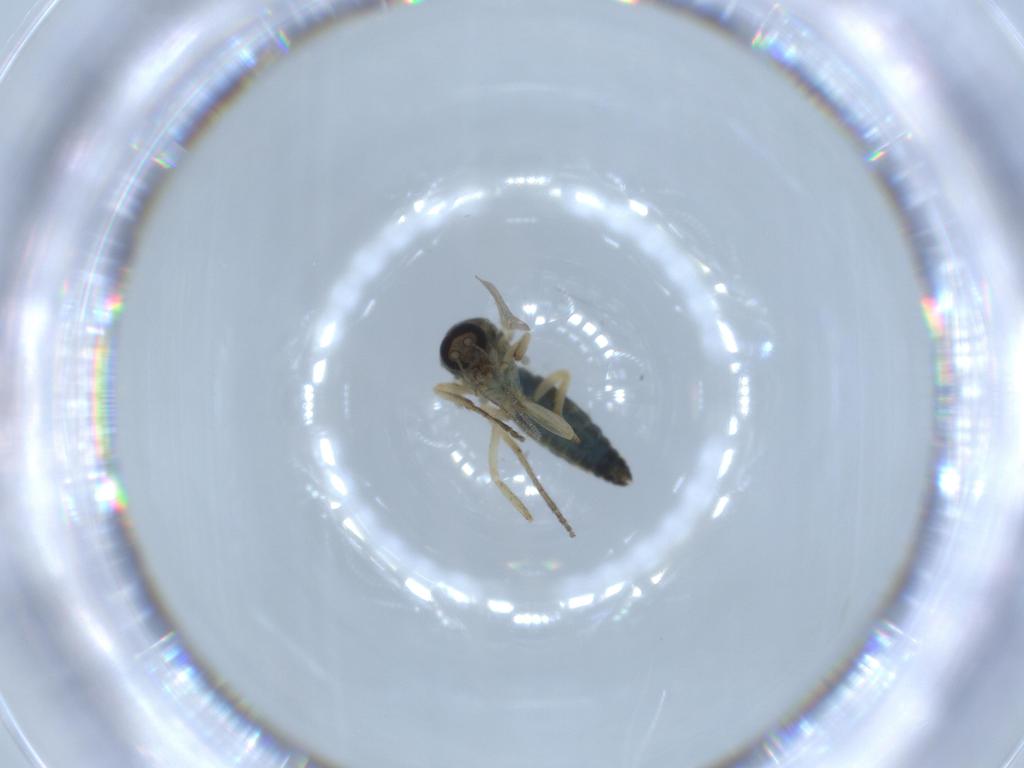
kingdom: Animalia
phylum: Arthropoda
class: Insecta
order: Diptera
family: Ceratopogonidae
